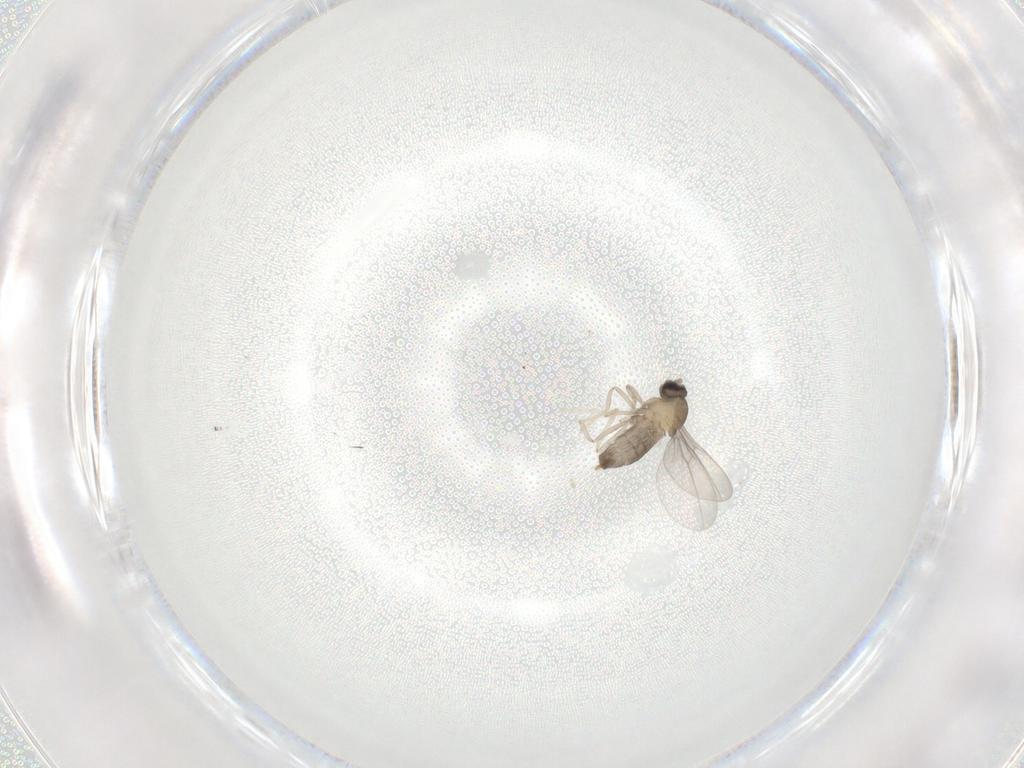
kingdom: Animalia
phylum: Arthropoda
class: Insecta
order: Diptera
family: Cecidomyiidae
